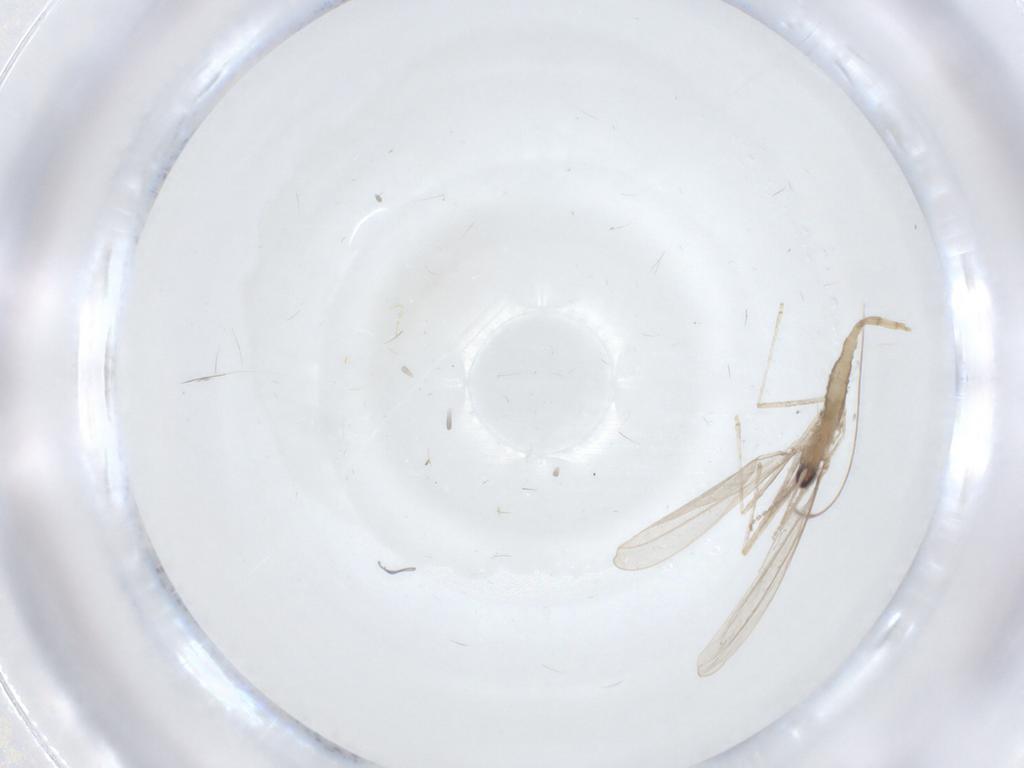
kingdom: Animalia
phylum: Arthropoda
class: Insecta
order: Diptera
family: Dolichopodidae
